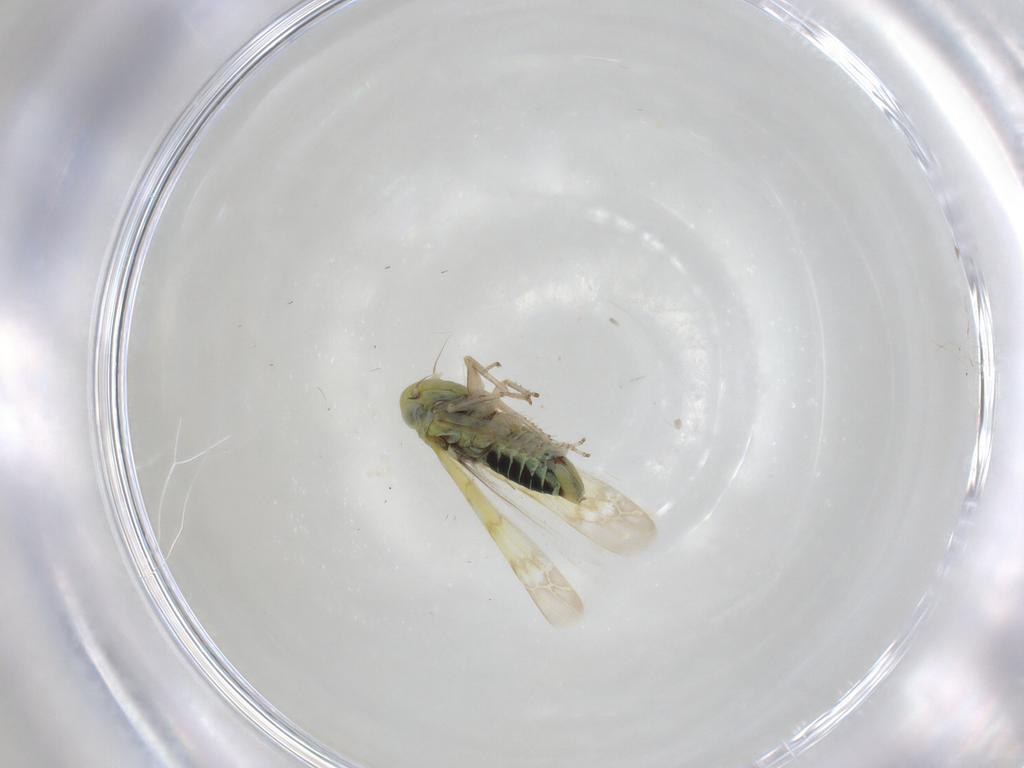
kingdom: Animalia
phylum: Arthropoda
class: Insecta
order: Hemiptera
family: Cicadellidae
